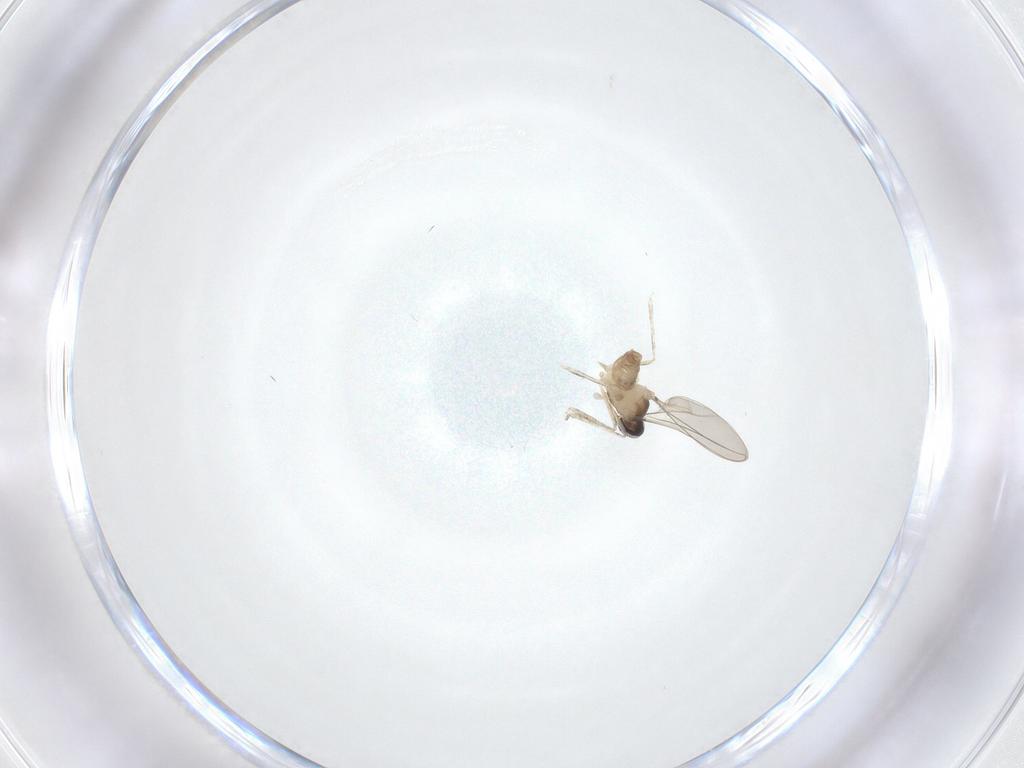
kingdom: Animalia
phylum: Arthropoda
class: Insecta
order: Diptera
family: Cecidomyiidae
